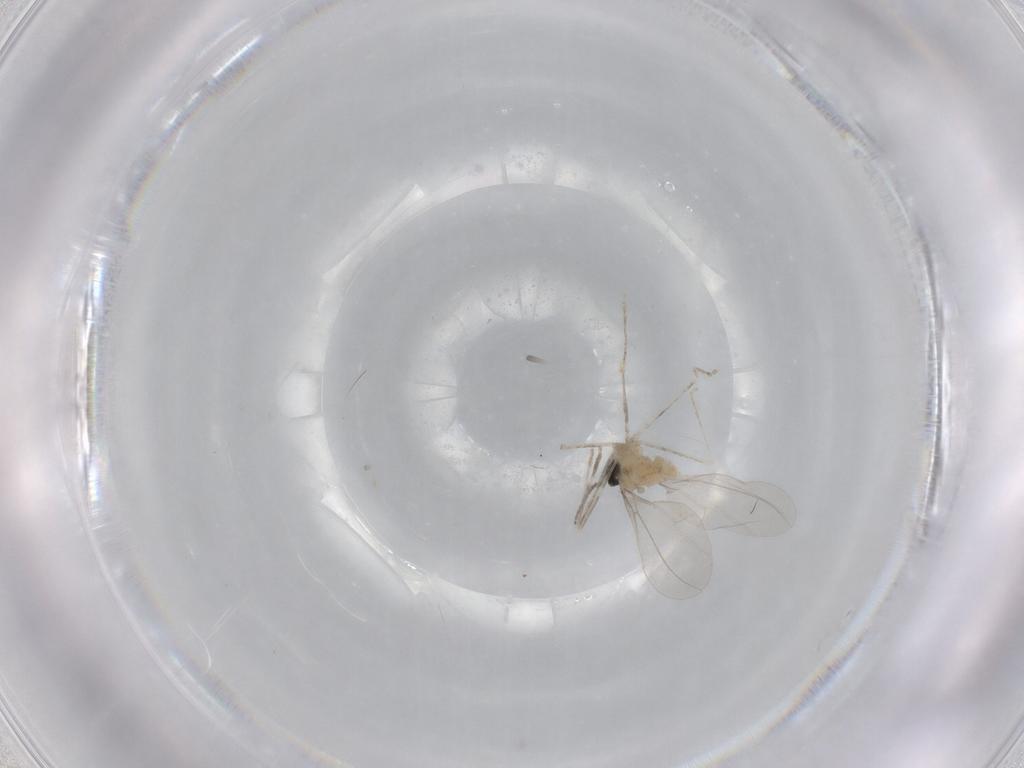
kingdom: Animalia
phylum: Arthropoda
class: Insecta
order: Diptera
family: Cecidomyiidae
